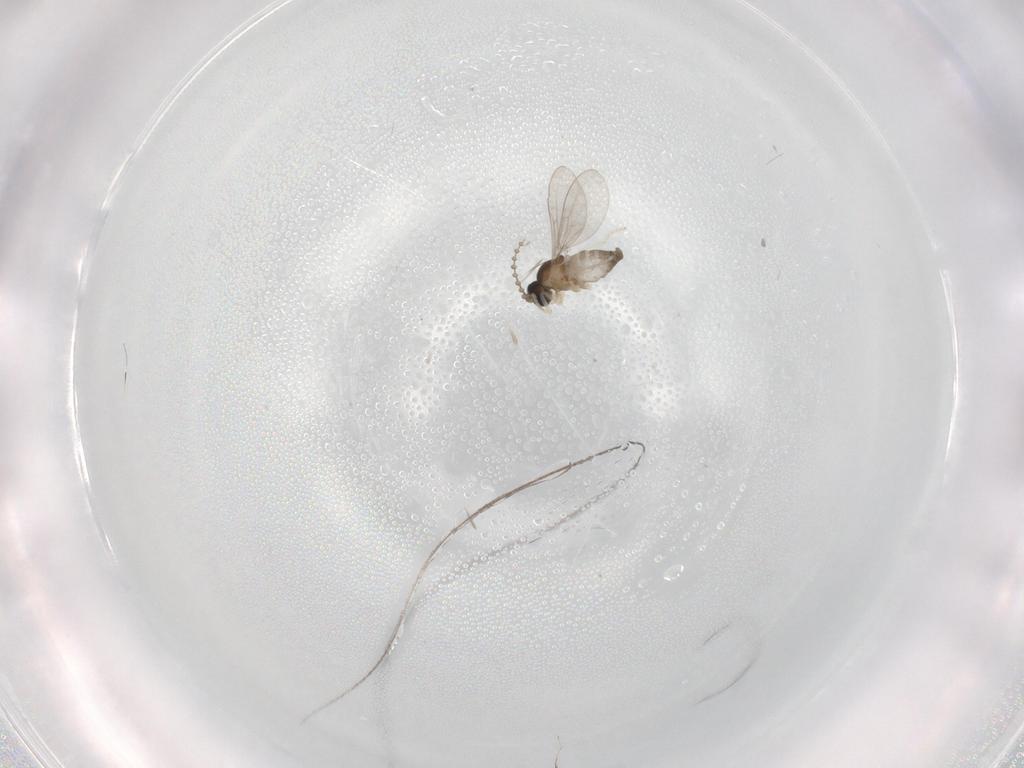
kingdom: Animalia
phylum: Arthropoda
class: Insecta
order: Diptera
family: Cecidomyiidae
